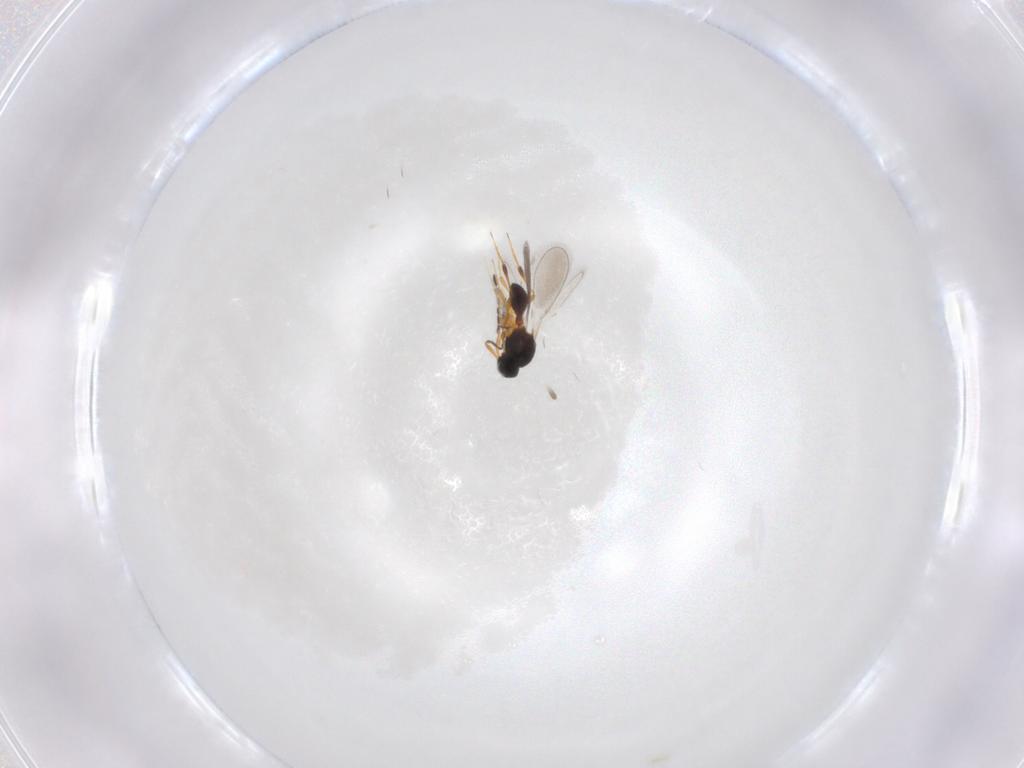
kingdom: Animalia
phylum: Arthropoda
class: Insecta
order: Hymenoptera
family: Platygastridae
